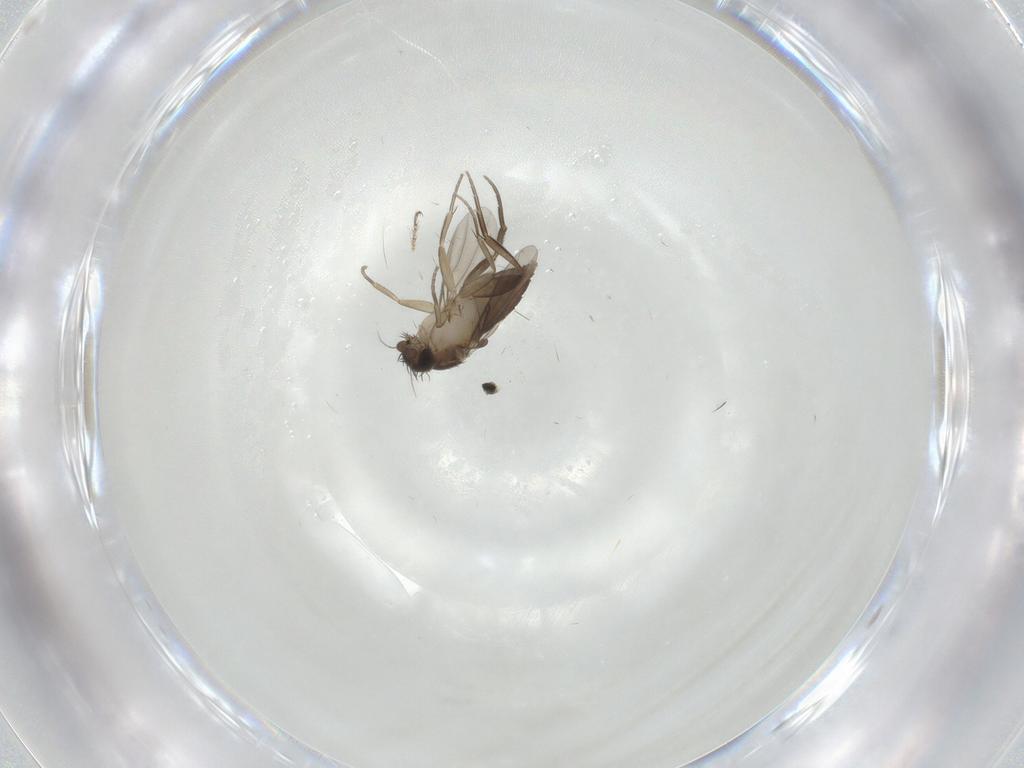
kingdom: Animalia
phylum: Arthropoda
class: Insecta
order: Diptera
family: Phoridae
